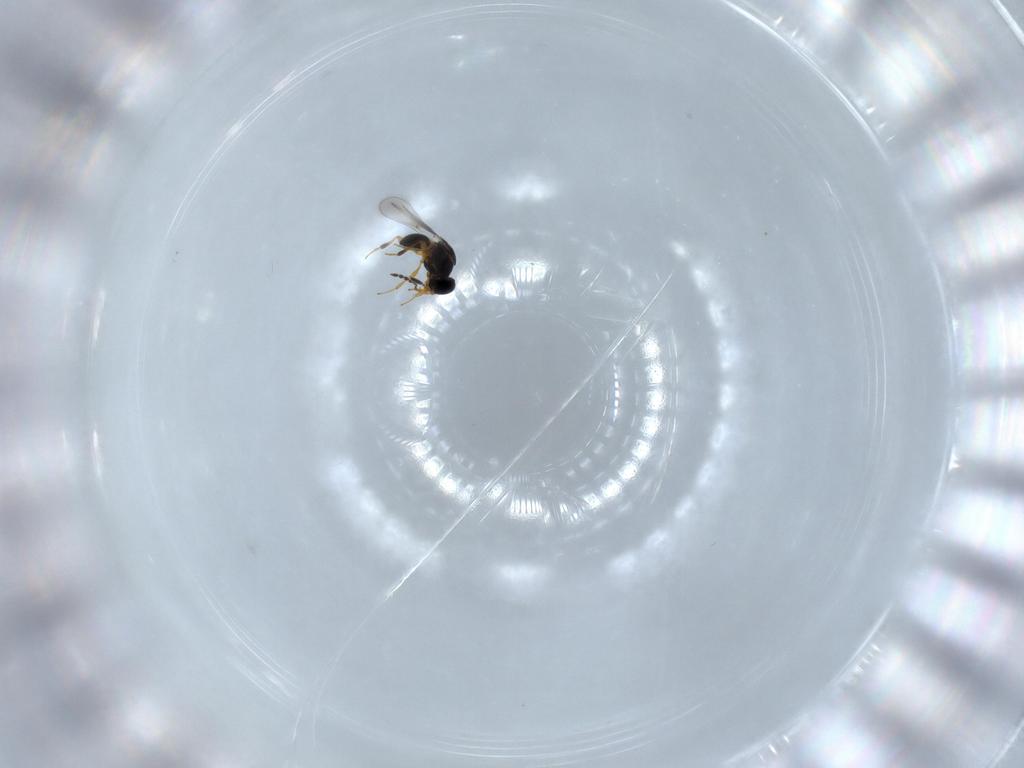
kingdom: Animalia
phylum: Arthropoda
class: Insecta
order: Hymenoptera
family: Platygastridae
